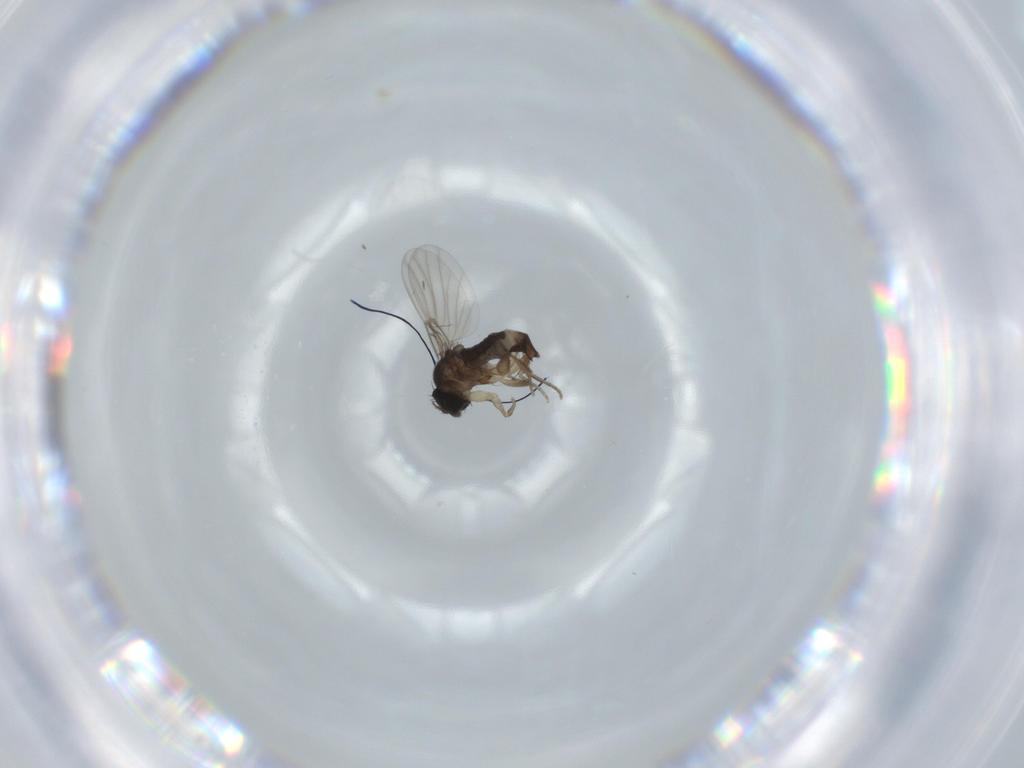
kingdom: Animalia
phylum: Arthropoda
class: Insecta
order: Diptera
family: Phoridae
